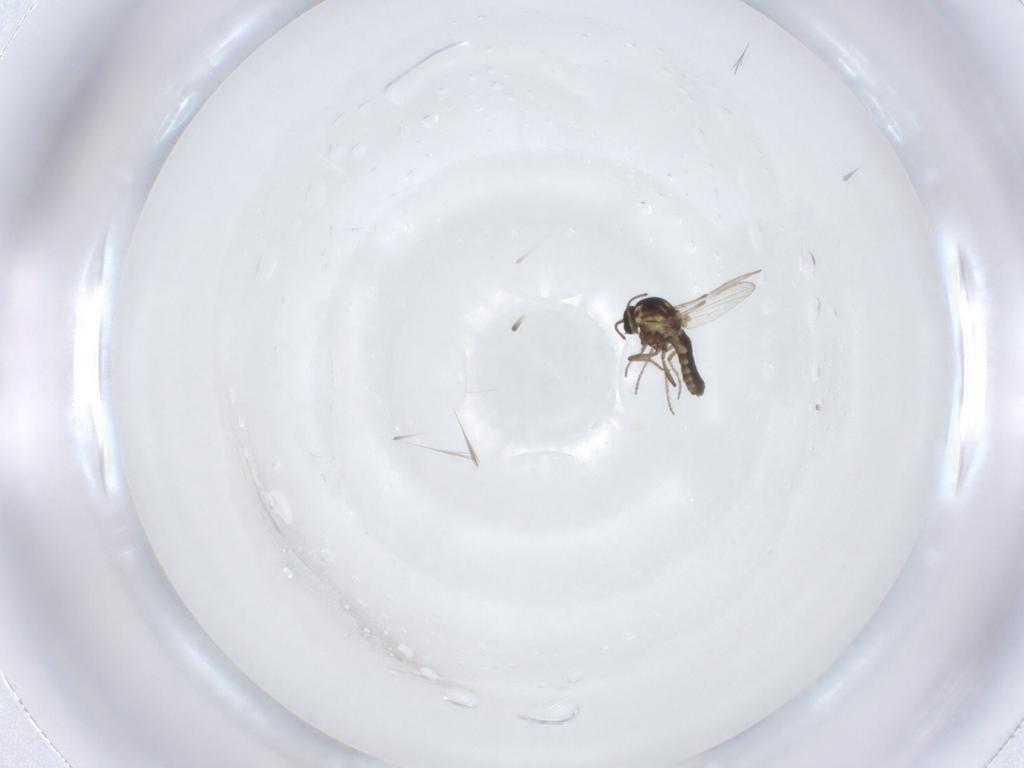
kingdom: Animalia
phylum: Arthropoda
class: Insecta
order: Diptera
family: Ceratopogonidae
